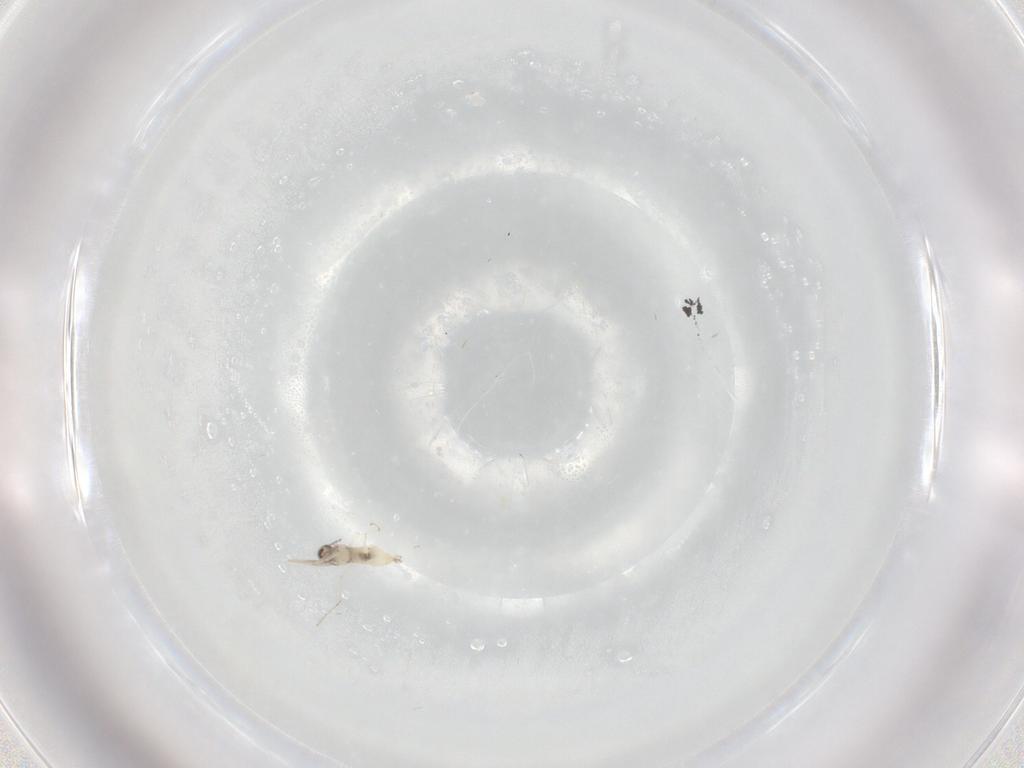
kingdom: Animalia
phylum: Arthropoda
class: Insecta
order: Diptera
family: Cecidomyiidae
